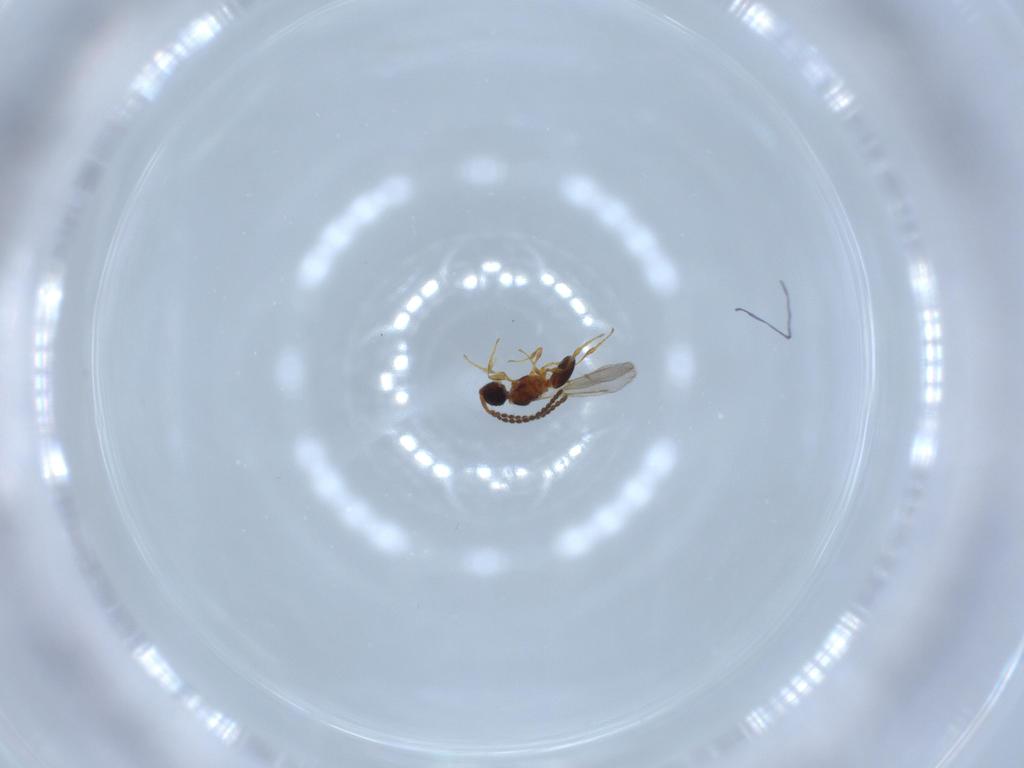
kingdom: Animalia
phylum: Arthropoda
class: Insecta
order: Hymenoptera
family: Diapriidae
